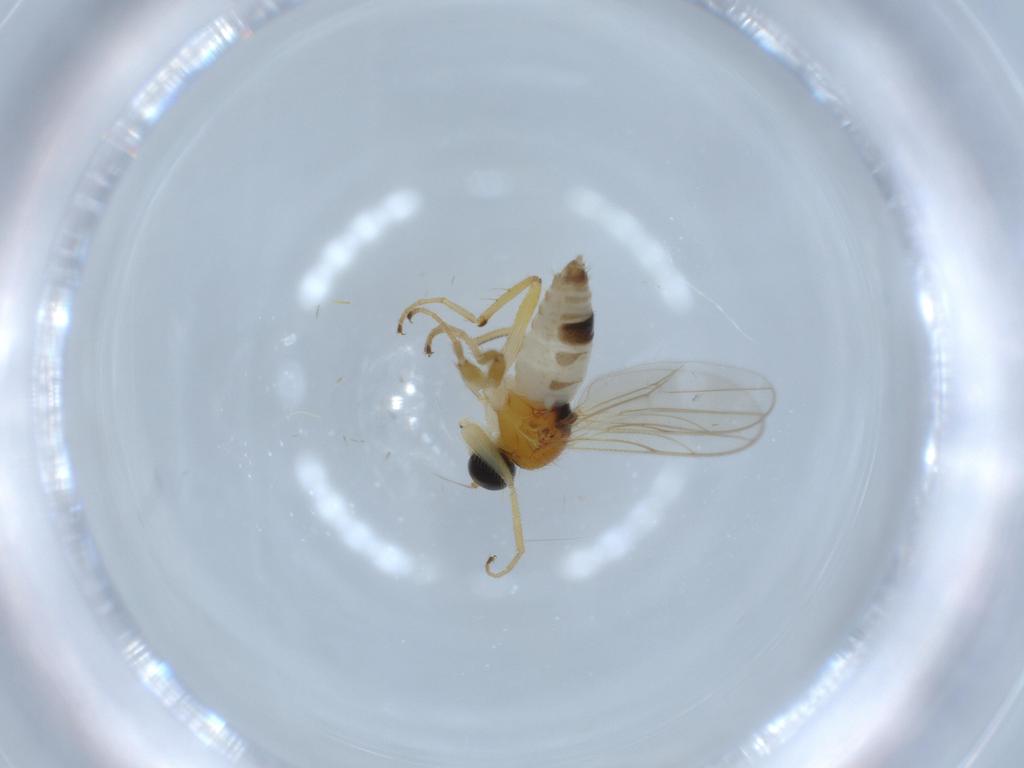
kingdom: Animalia
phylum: Arthropoda
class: Insecta
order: Diptera
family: Hybotidae
